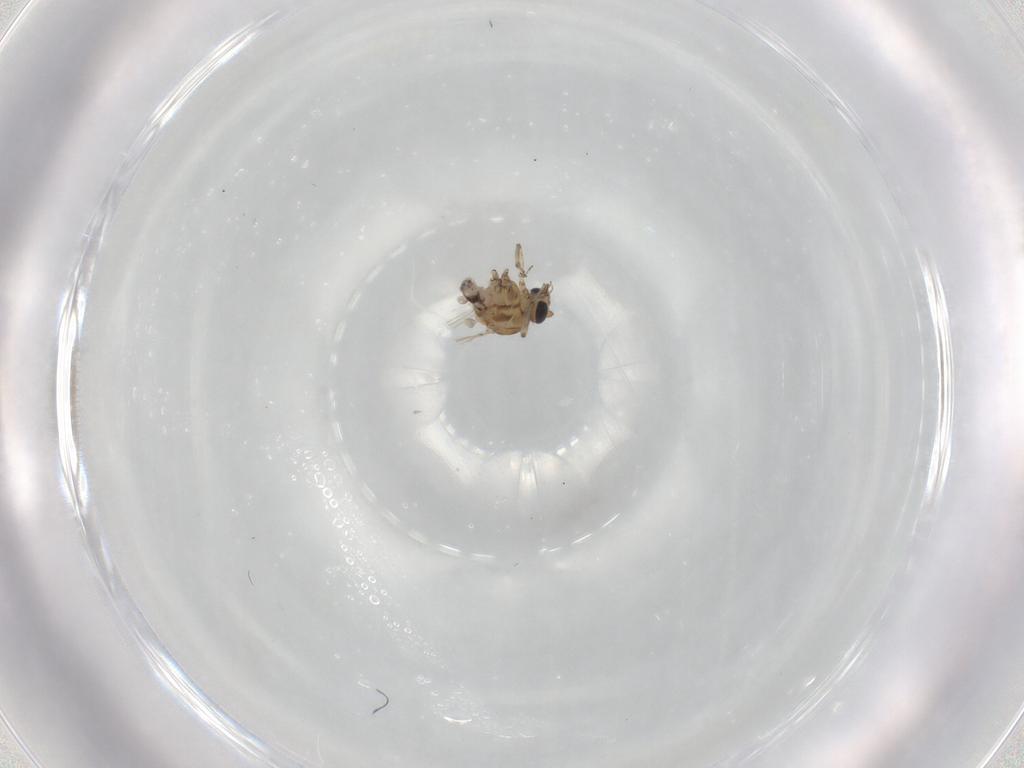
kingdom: Animalia
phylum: Arthropoda
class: Insecta
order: Diptera
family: Ceratopogonidae
